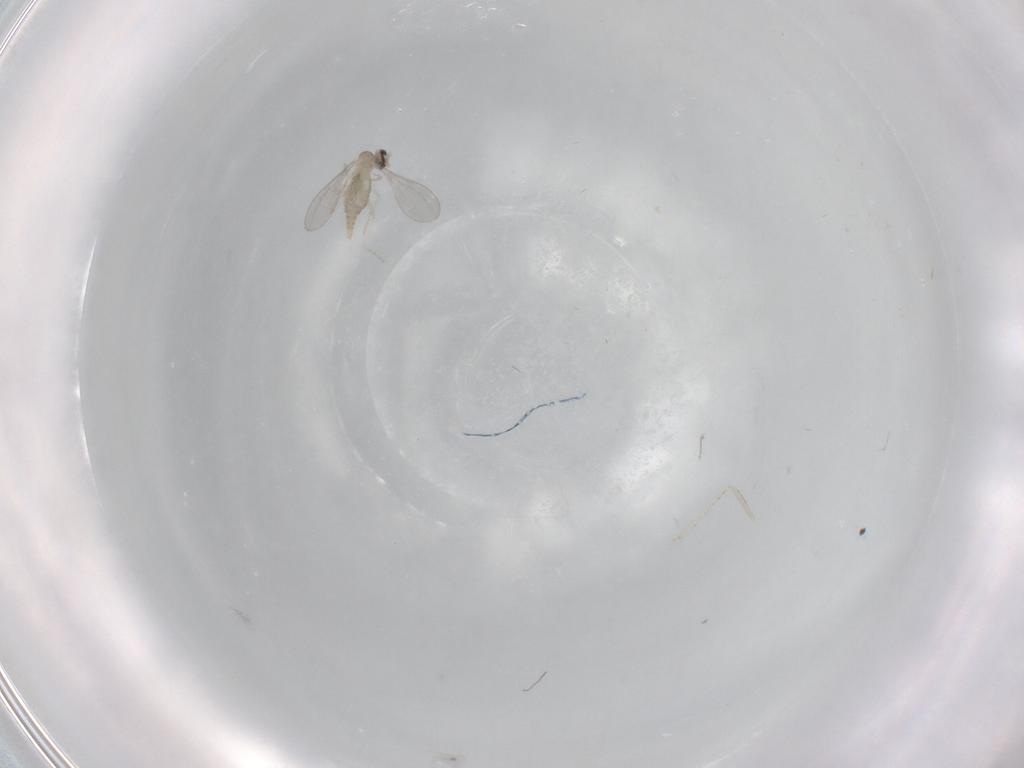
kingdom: Animalia
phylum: Arthropoda
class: Insecta
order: Diptera
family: Cecidomyiidae
